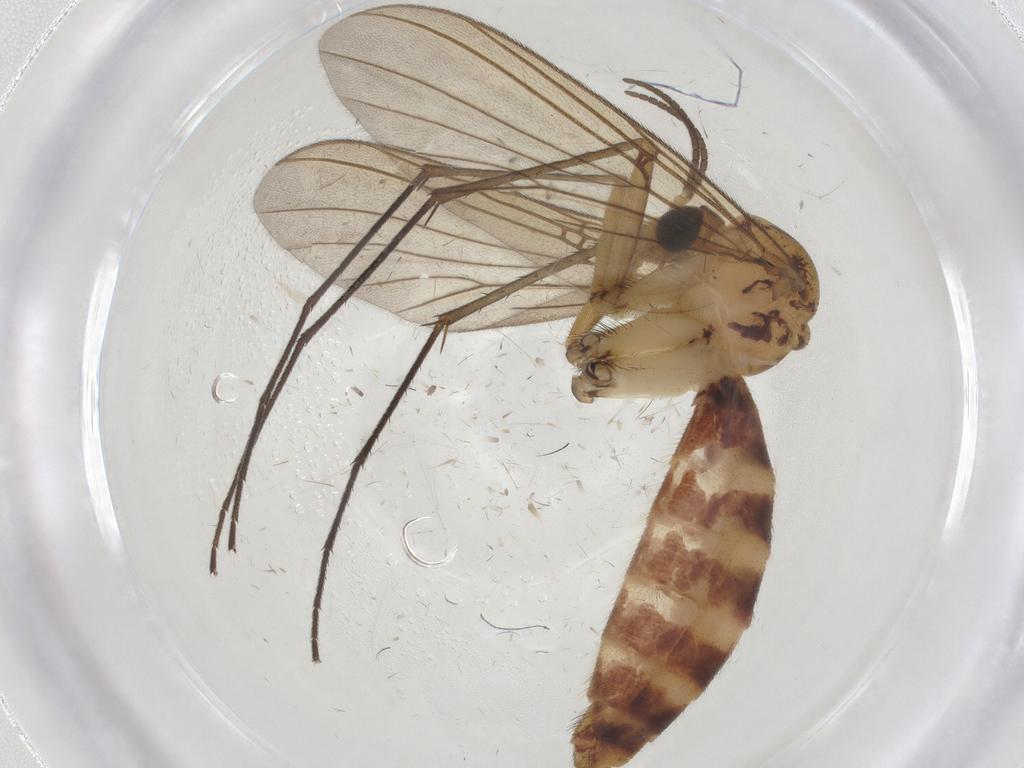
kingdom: Animalia
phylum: Arthropoda
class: Insecta
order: Diptera
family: Mycetophilidae
